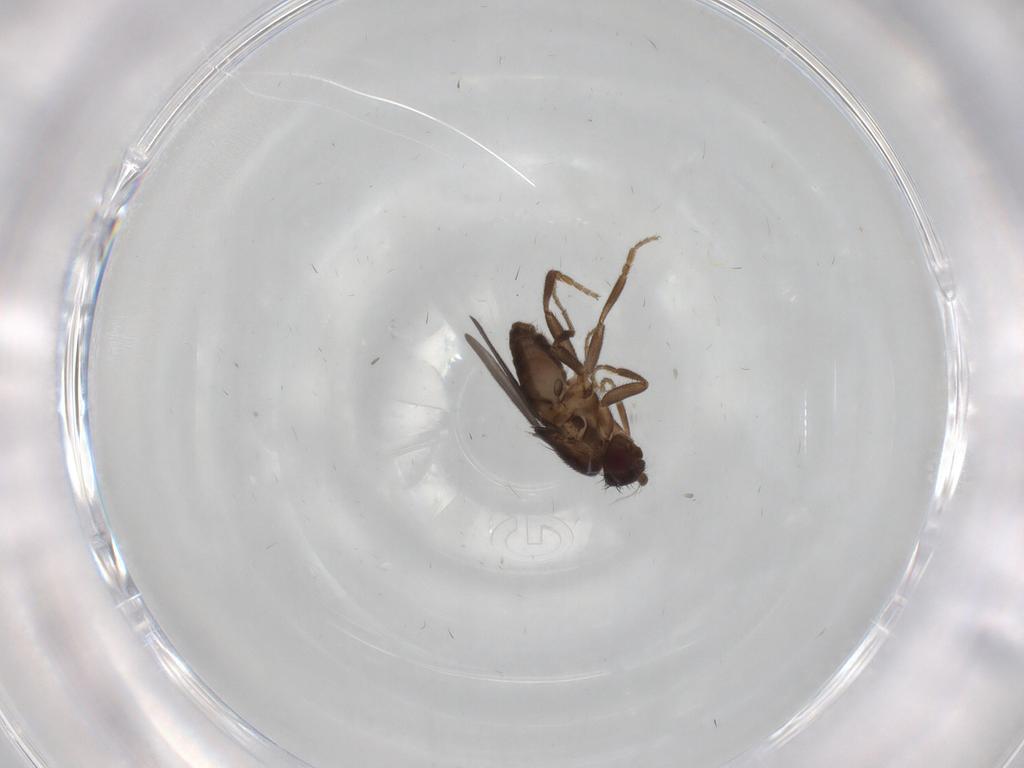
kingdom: Animalia
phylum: Arthropoda
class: Insecta
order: Diptera
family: Sphaeroceridae
